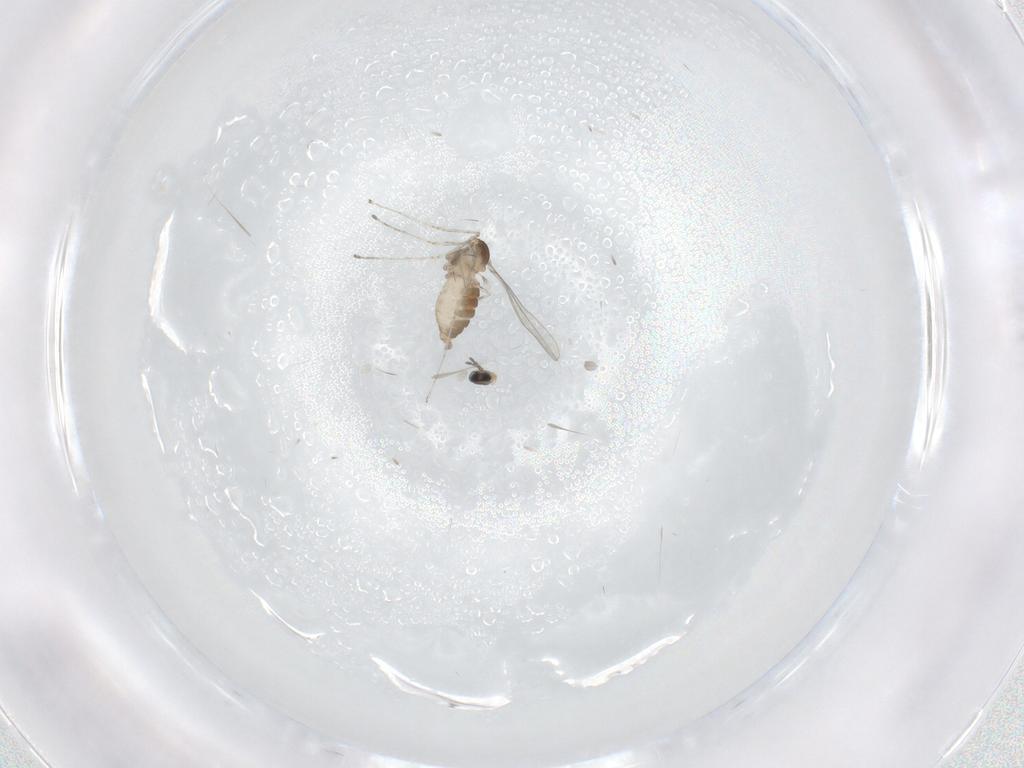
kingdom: Animalia
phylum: Arthropoda
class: Insecta
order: Diptera
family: Cecidomyiidae
